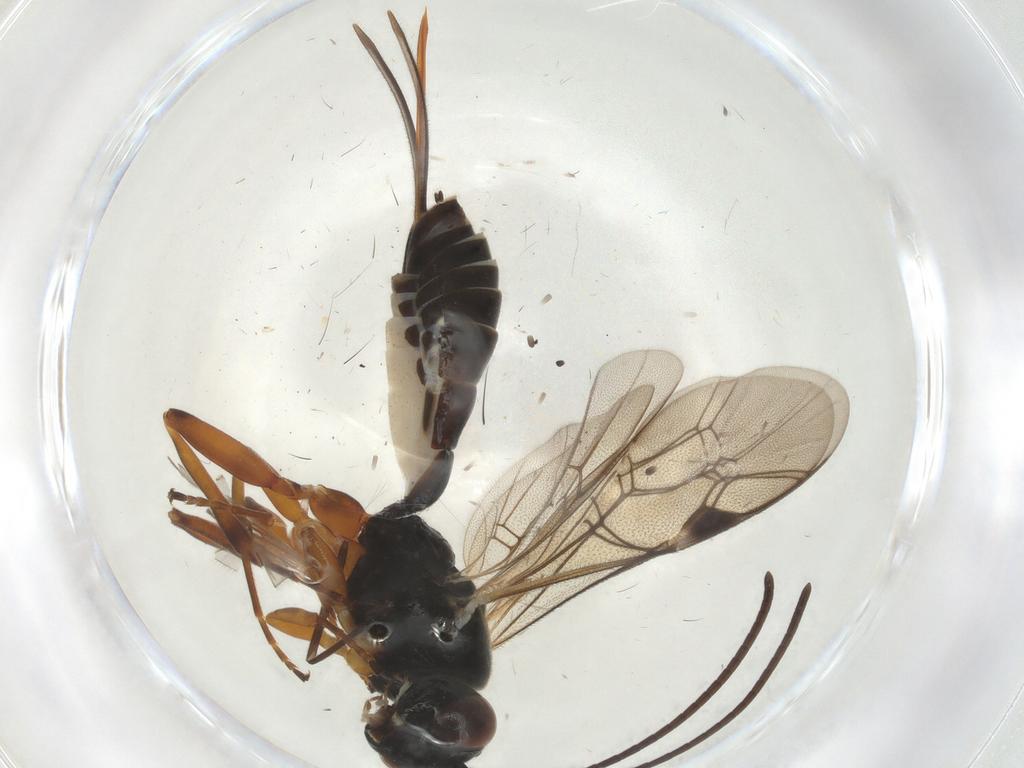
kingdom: Animalia
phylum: Arthropoda
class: Insecta
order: Hymenoptera
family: Ichneumonidae
